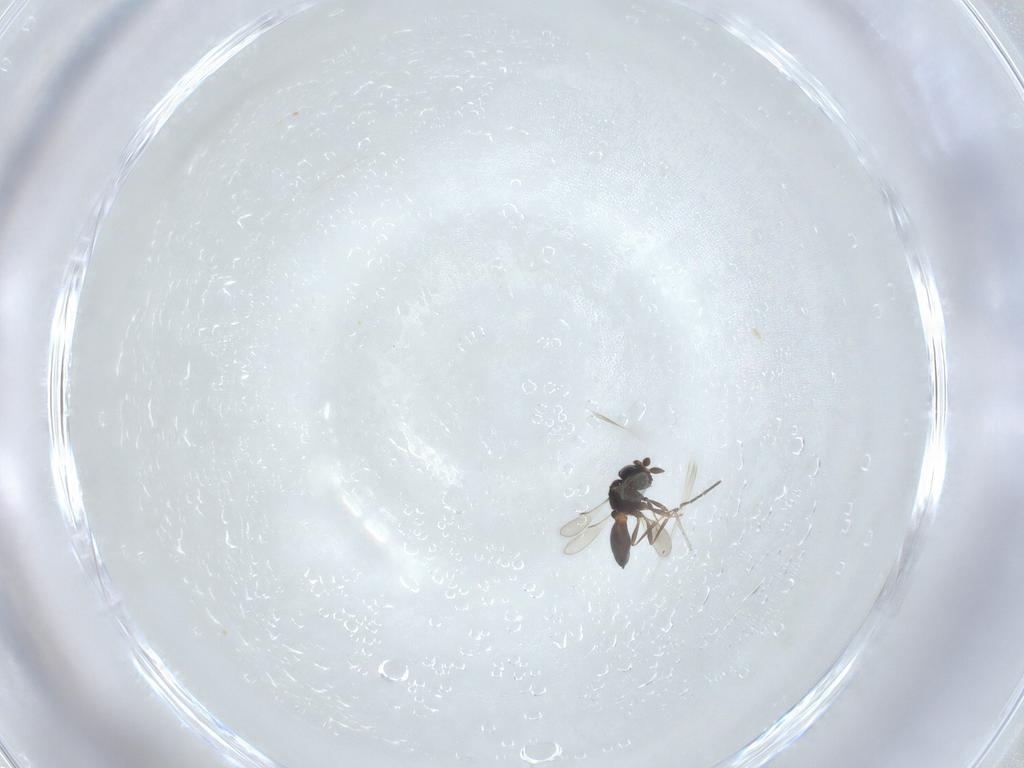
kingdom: Animalia
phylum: Arthropoda
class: Insecta
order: Hymenoptera
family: Scelionidae
